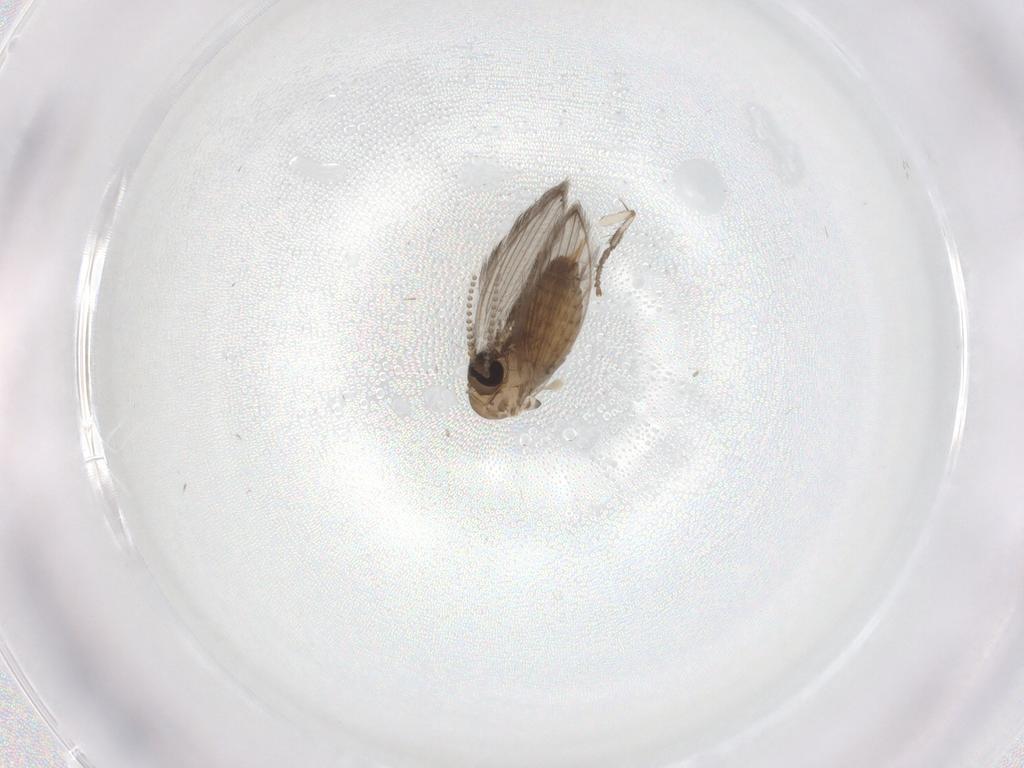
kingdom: Animalia
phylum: Arthropoda
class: Insecta
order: Diptera
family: Psychodidae
